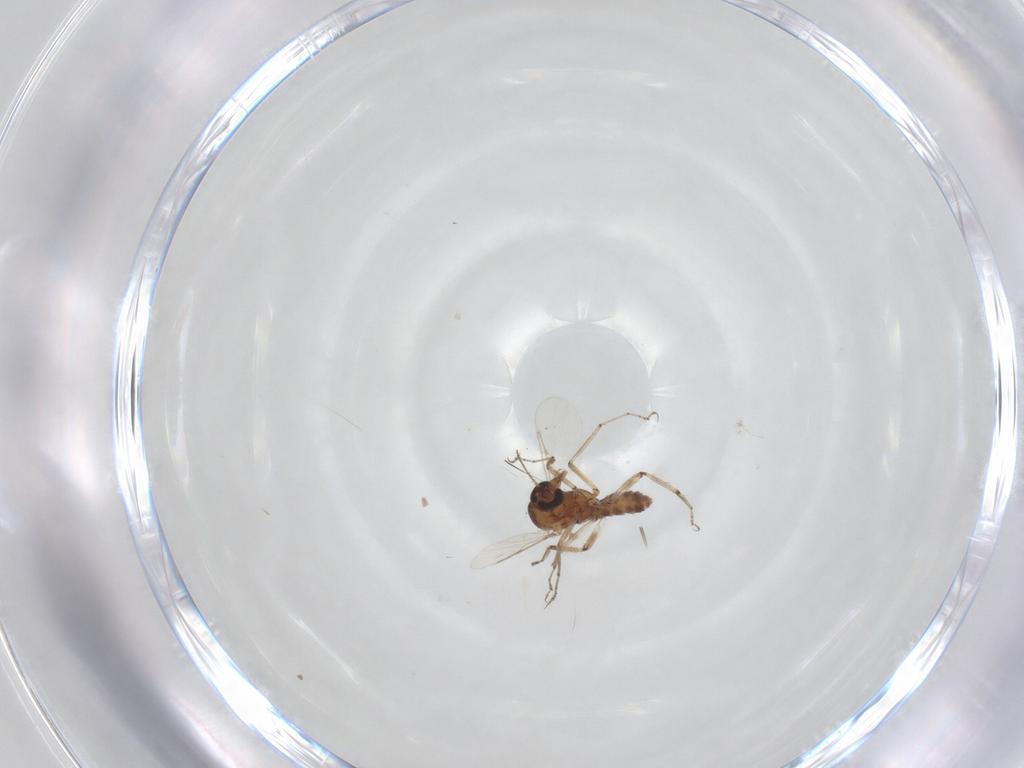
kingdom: Animalia
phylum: Arthropoda
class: Insecta
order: Diptera
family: Ceratopogonidae
